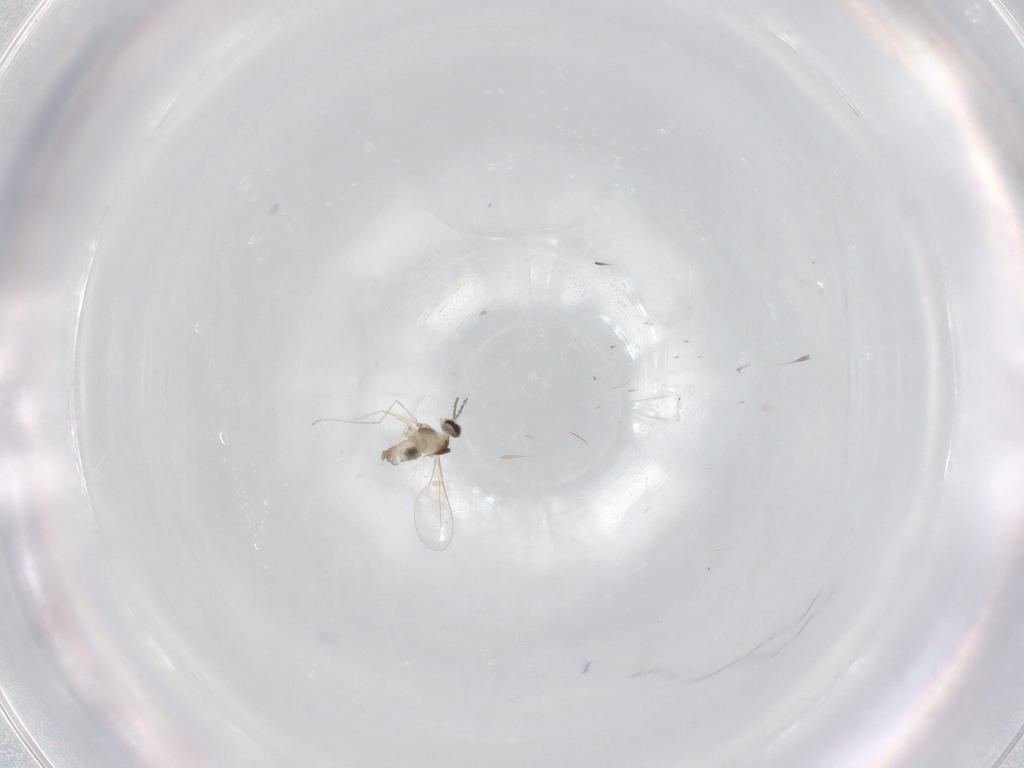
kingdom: Animalia
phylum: Arthropoda
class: Insecta
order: Diptera
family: Cecidomyiidae
